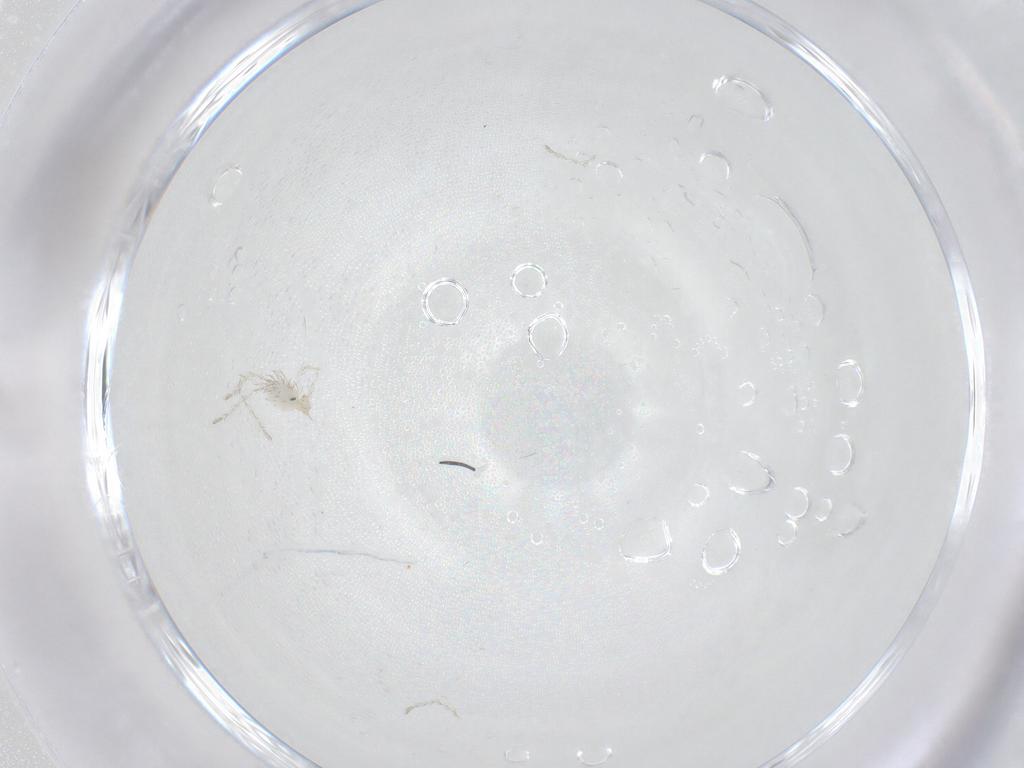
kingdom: Animalia
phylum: Arthropoda
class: Arachnida
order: Trombidiformes
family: Erythraeidae
